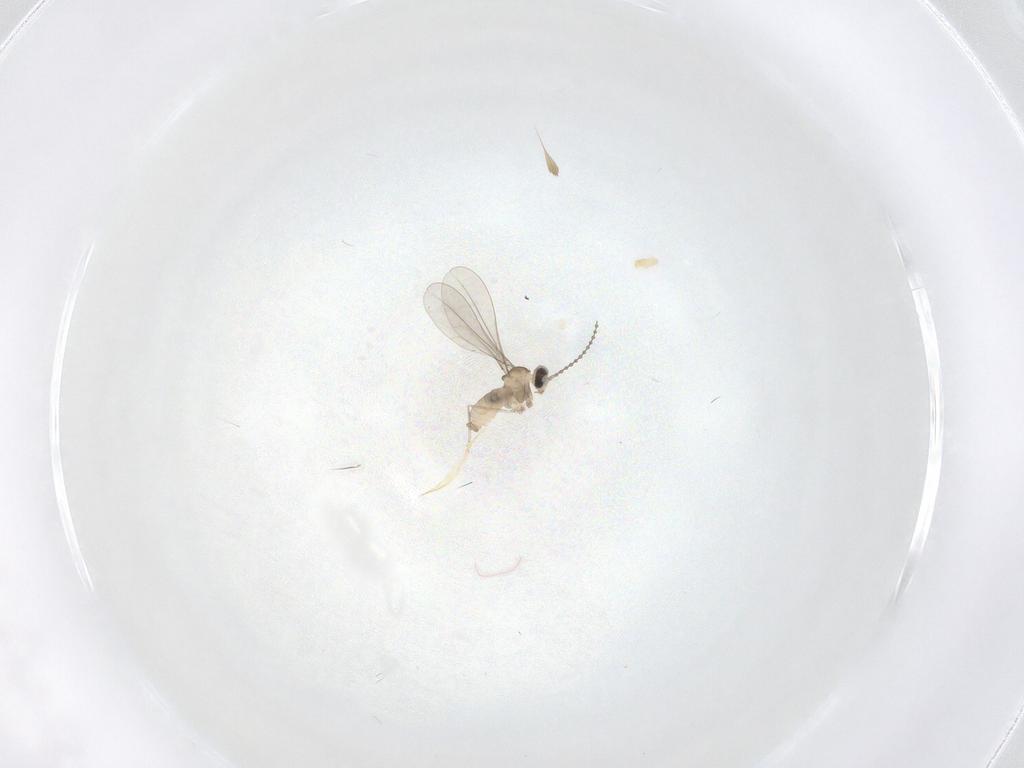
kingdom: Animalia
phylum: Arthropoda
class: Insecta
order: Diptera
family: Cecidomyiidae
